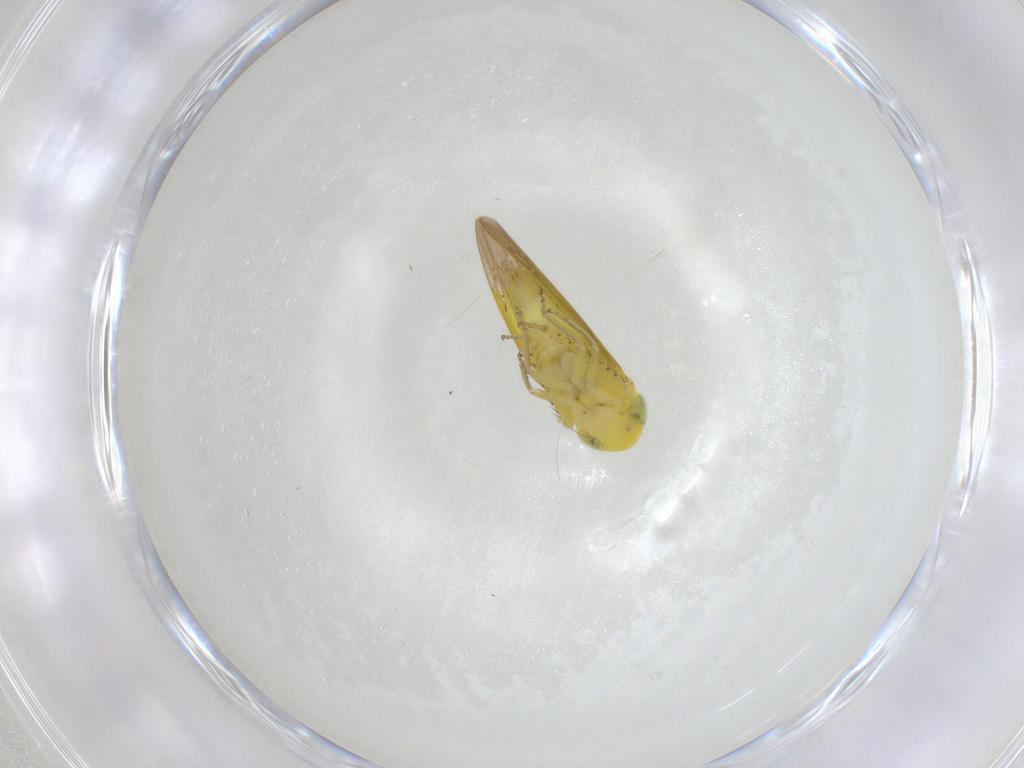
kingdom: Animalia
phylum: Arthropoda
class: Insecta
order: Hemiptera
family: Cicadellidae
